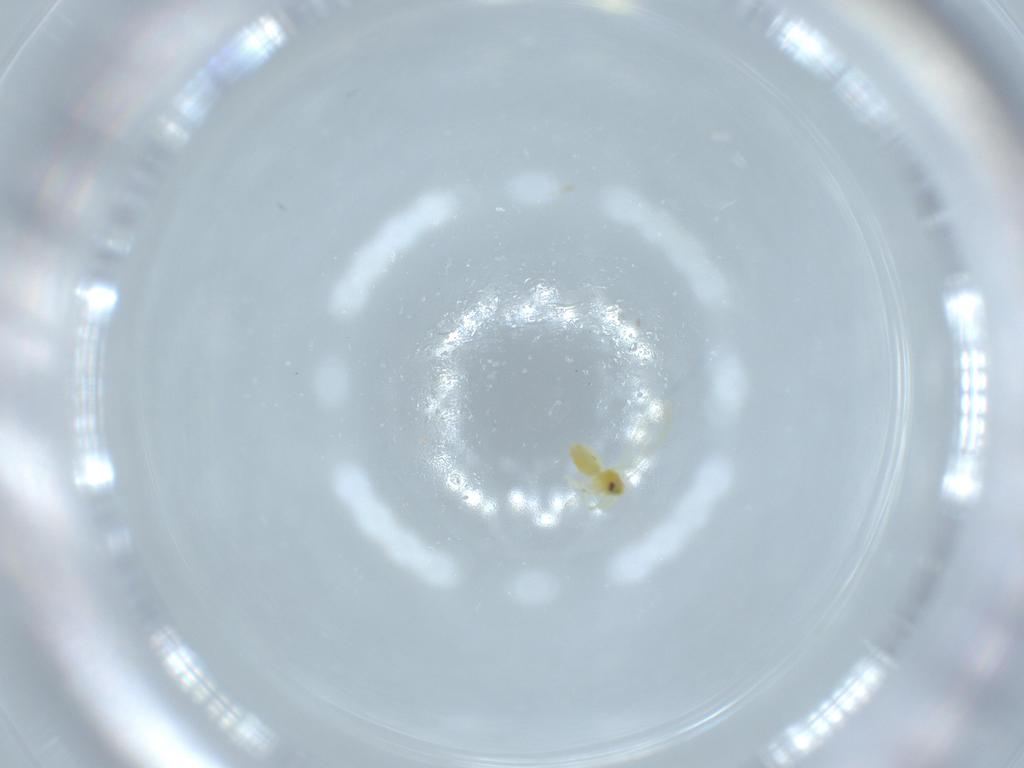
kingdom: Animalia
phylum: Arthropoda
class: Insecta
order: Hemiptera
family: Aleyrodidae
